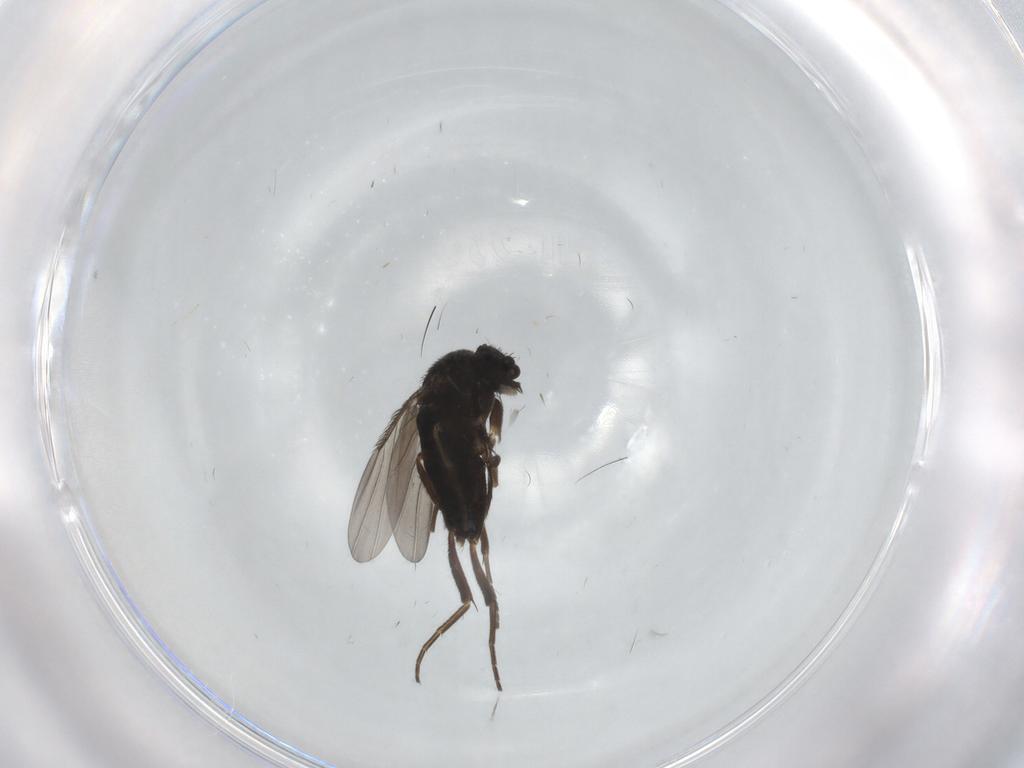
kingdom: Animalia
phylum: Arthropoda
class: Insecta
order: Diptera
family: Phoridae
